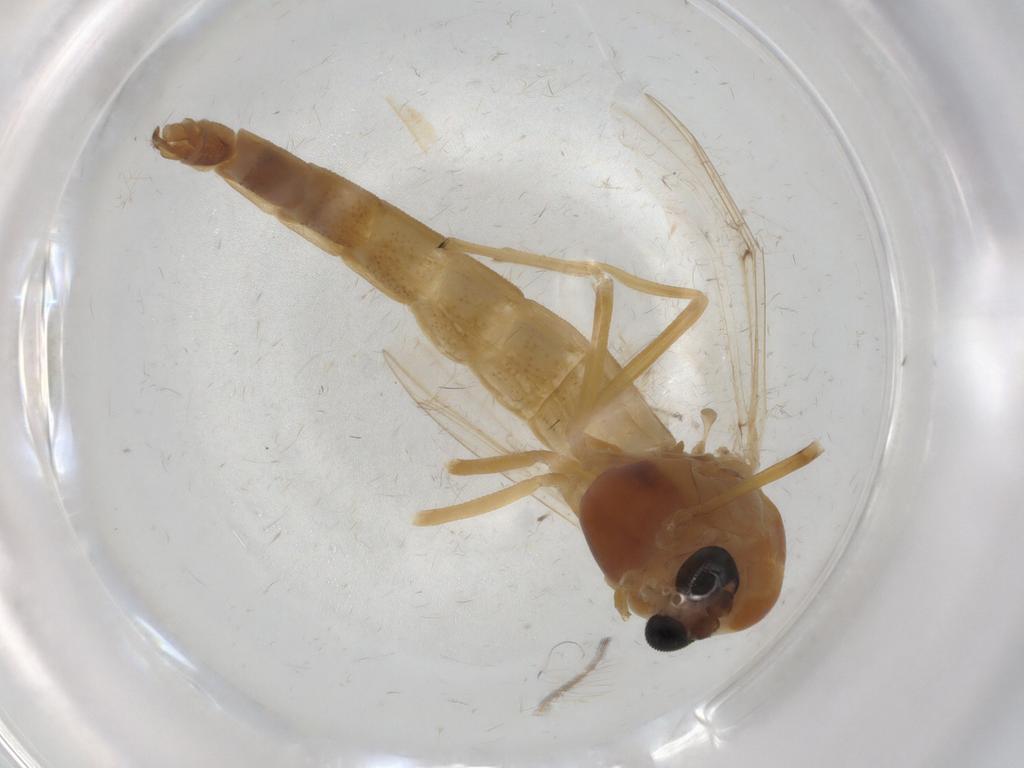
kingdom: Animalia
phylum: Arthropoda
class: Insecta
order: Diptera
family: Chironomidae
